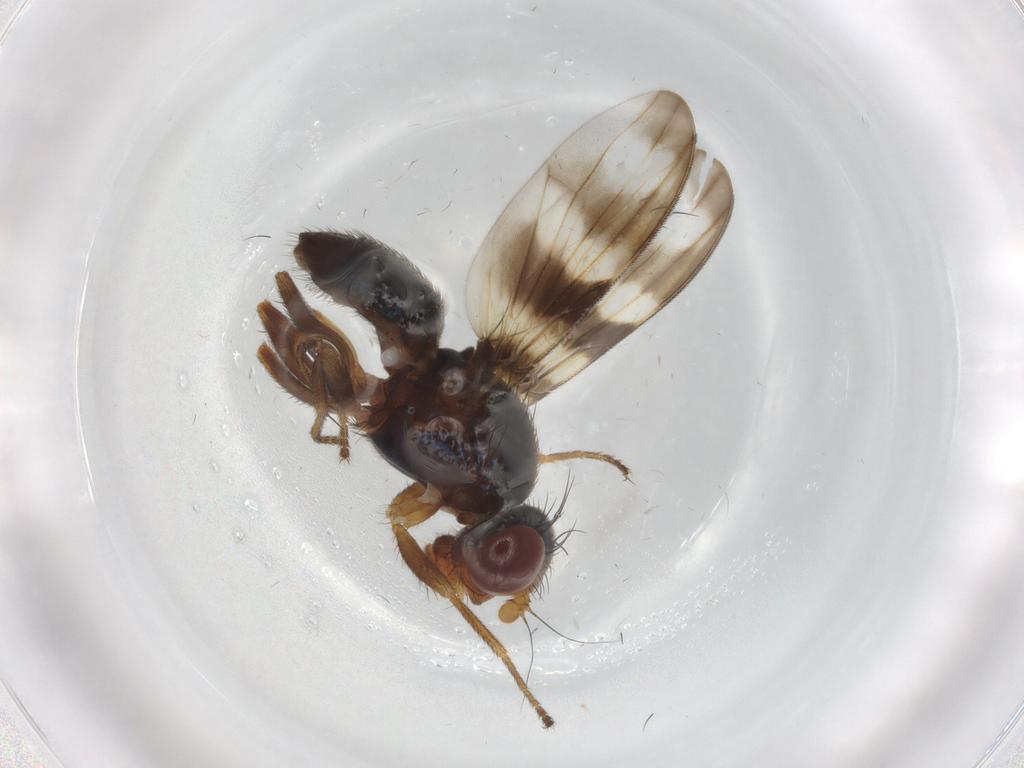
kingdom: Animalia
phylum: Arthropoda
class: Insecta
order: Diptera
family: Ulidiidae
